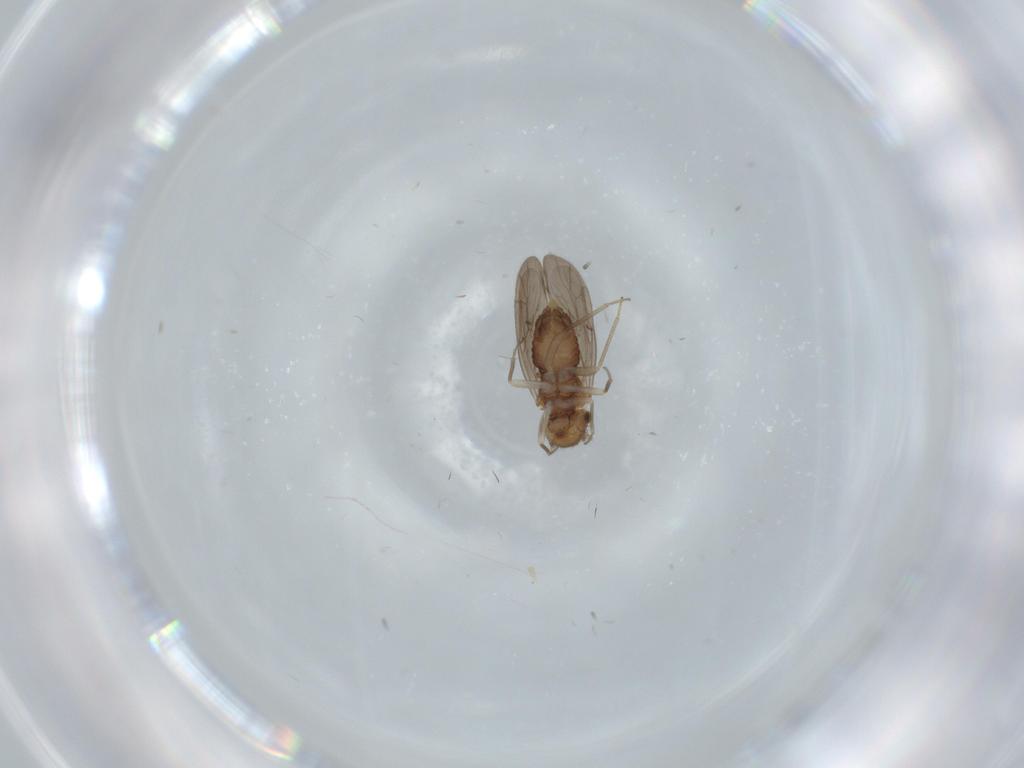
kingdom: Animalia
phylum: Arthropoda
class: Insecta
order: Psocodea
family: Ectopsocidae
